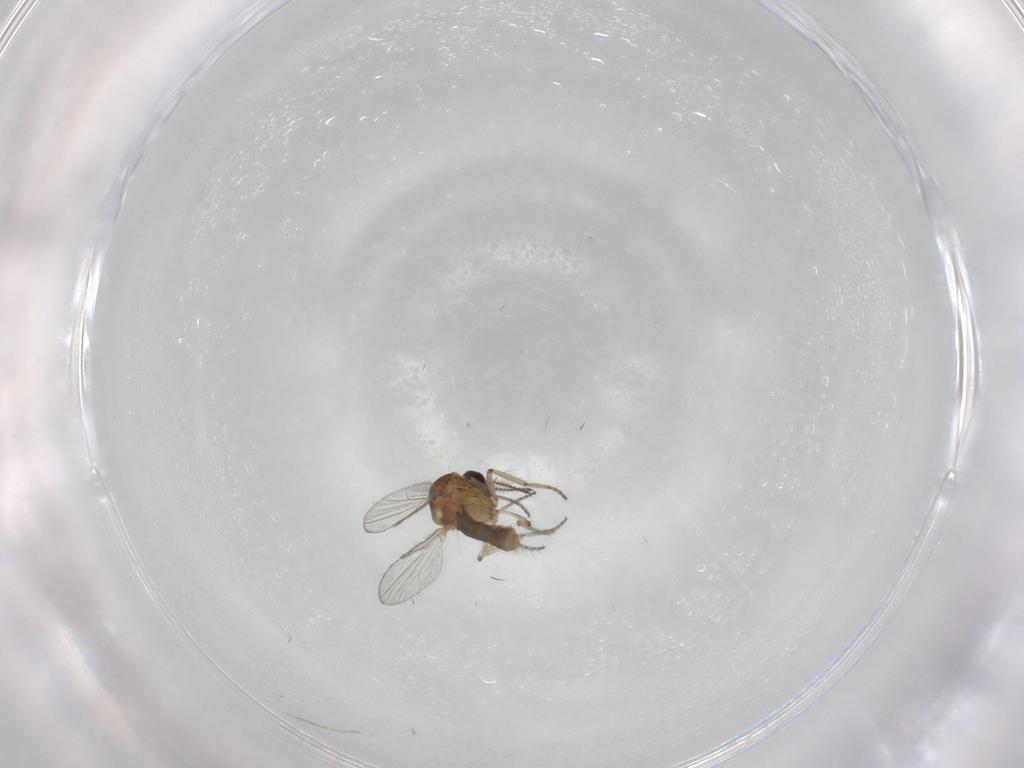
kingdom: Animalia
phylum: Arthropoda
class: Insecta
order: Diptera
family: Ceratopogonidae
